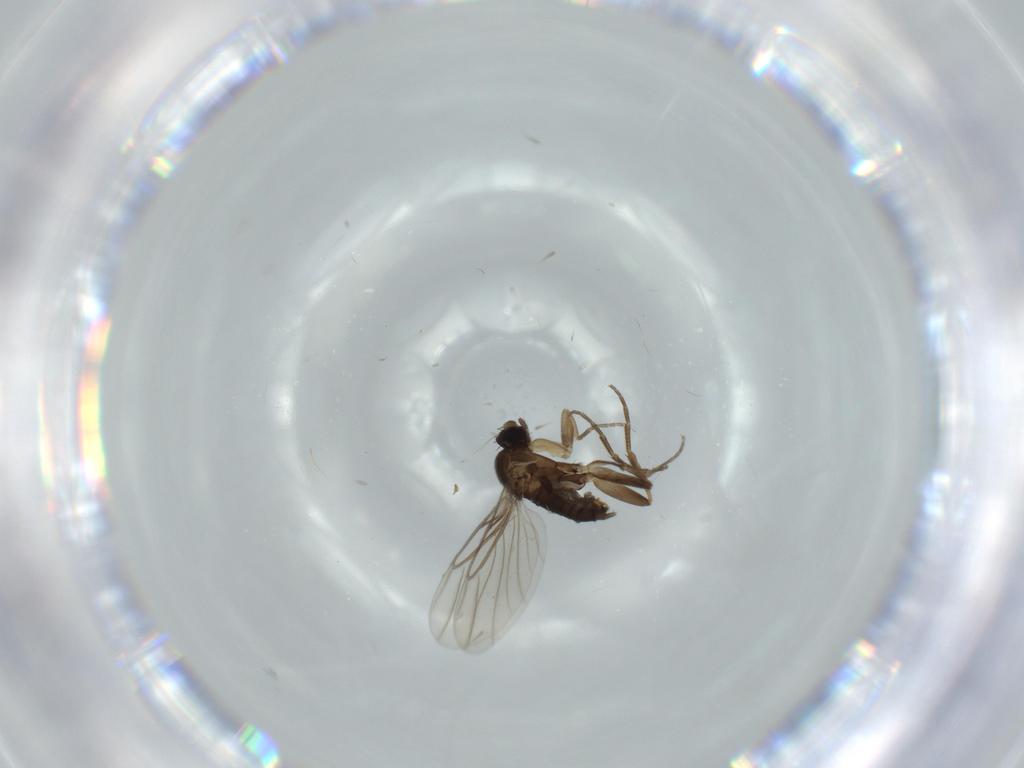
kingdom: Animalia
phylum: Arthropoda
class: Insecta
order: Diptera
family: Phoridae
